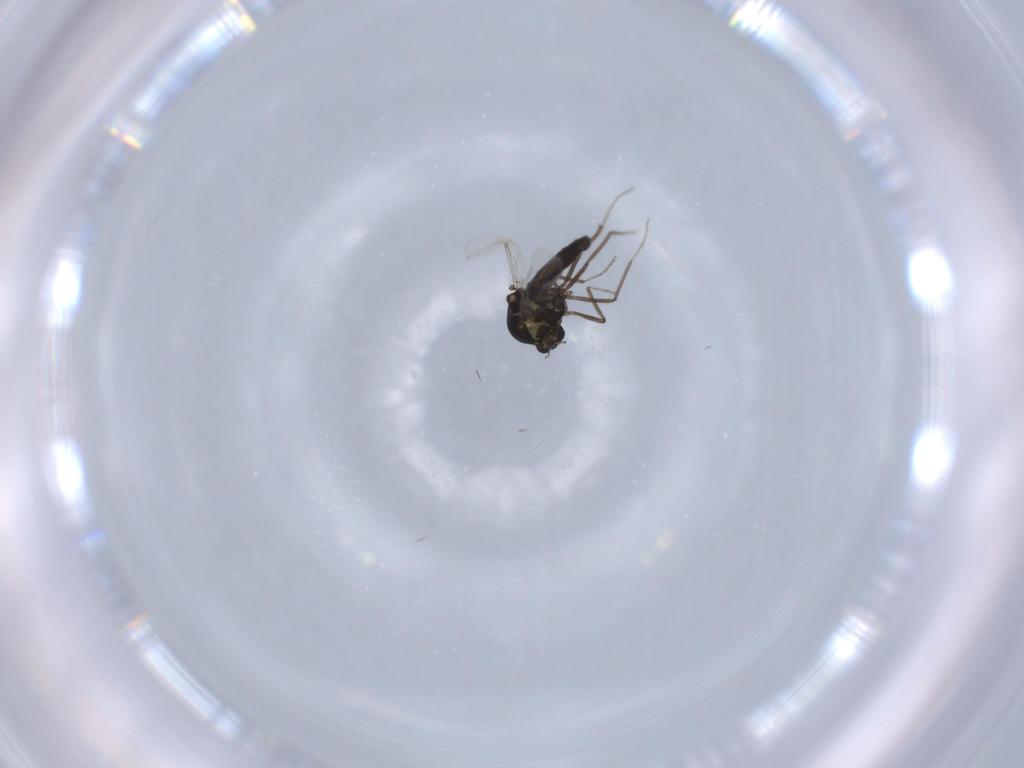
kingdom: Animalia
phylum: Arthropoda
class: Insecta
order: Diptera
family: Ceratopogonidae
